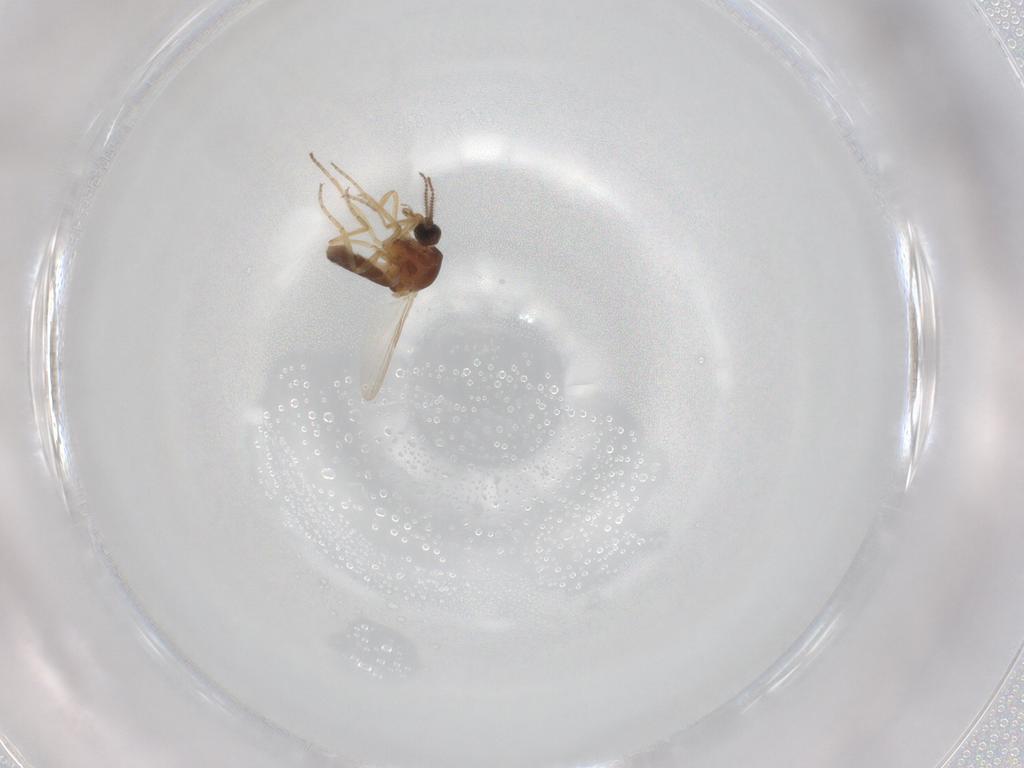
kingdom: Animalia
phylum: Arthropoda
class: Insecta
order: Diptera
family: Ceratopogonidae
